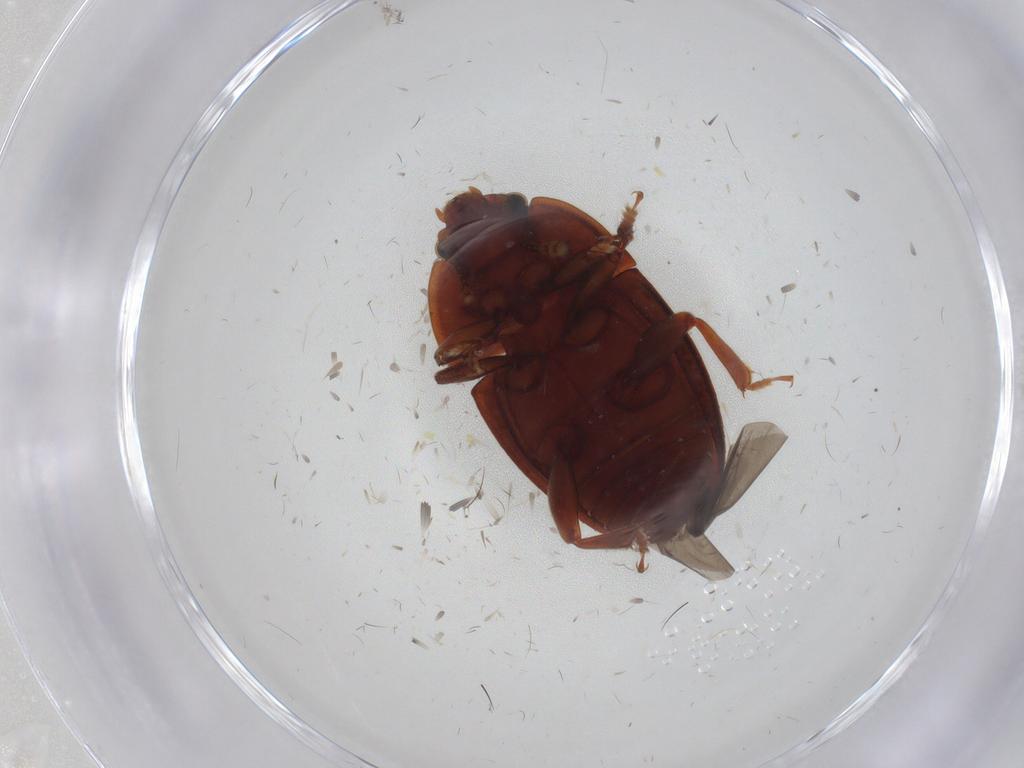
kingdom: Animalia
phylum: Arthropoda
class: Insecta
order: Coleoptera
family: Endomychidae
